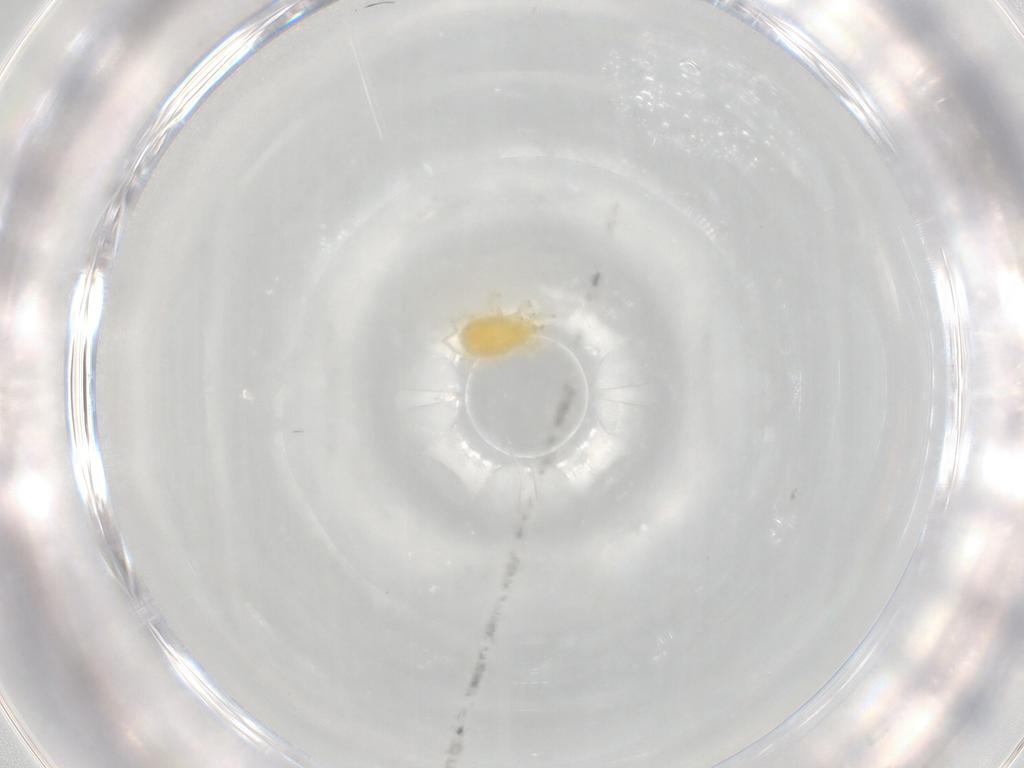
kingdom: Animalia
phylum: Arthropoda
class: Arachnida
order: Trombidiformes
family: Erythraeidae
